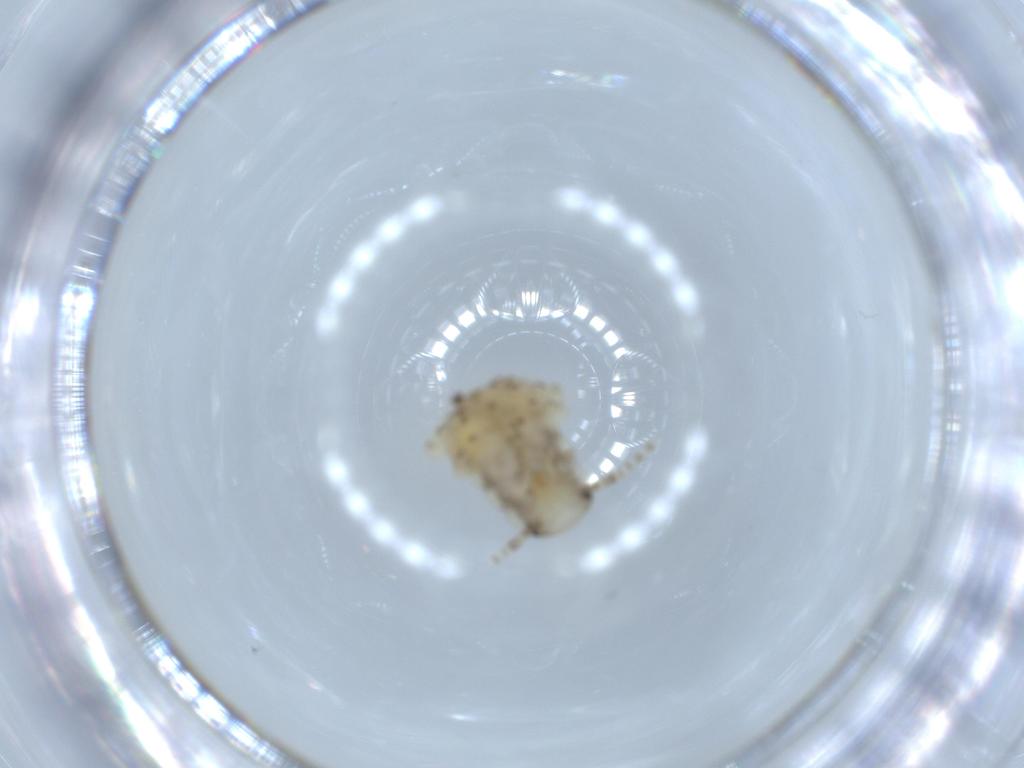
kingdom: Animalia
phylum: Arthropoda
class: Insecta
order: Blattodea
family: Ectobiidae
